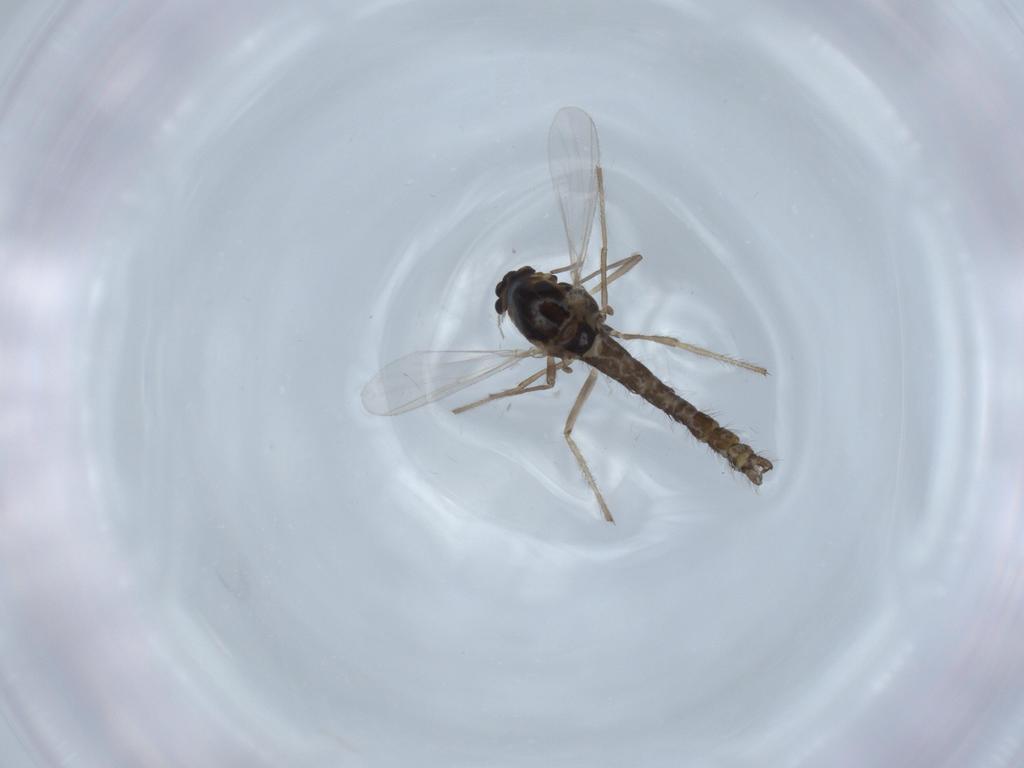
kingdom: Animalia
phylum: Arthropoda
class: Insecta
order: Diptera
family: Chironomidae
